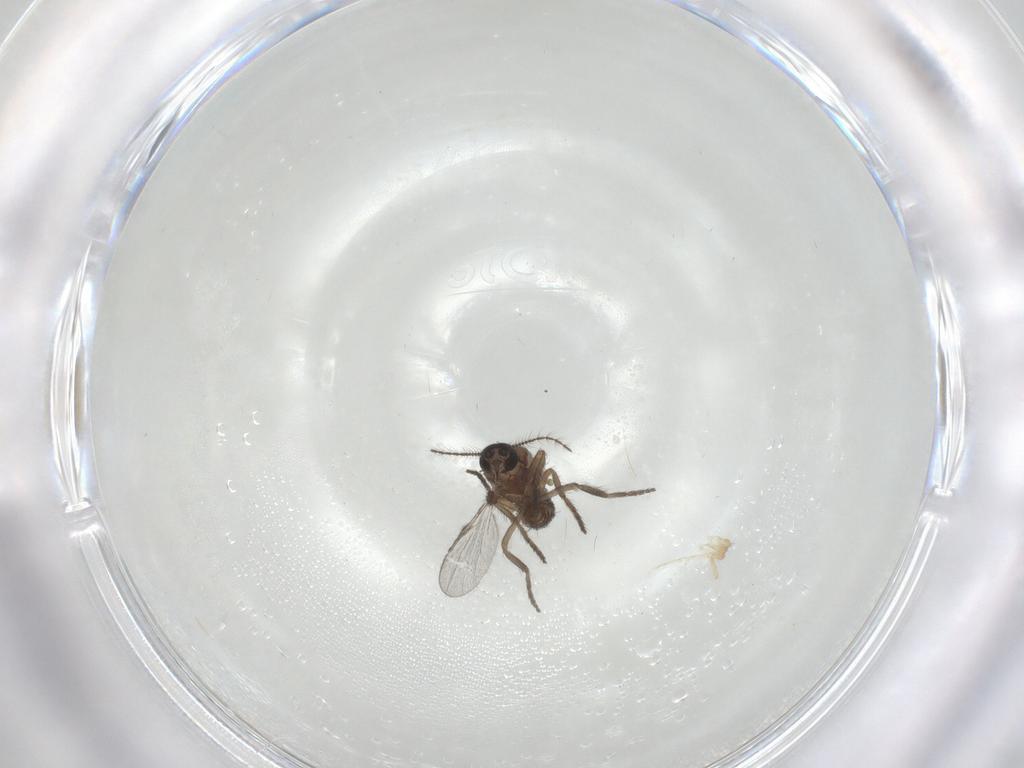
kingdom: Animalia
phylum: Arthropoda
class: Insecta
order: Diptera
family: Ceratopogonidae
